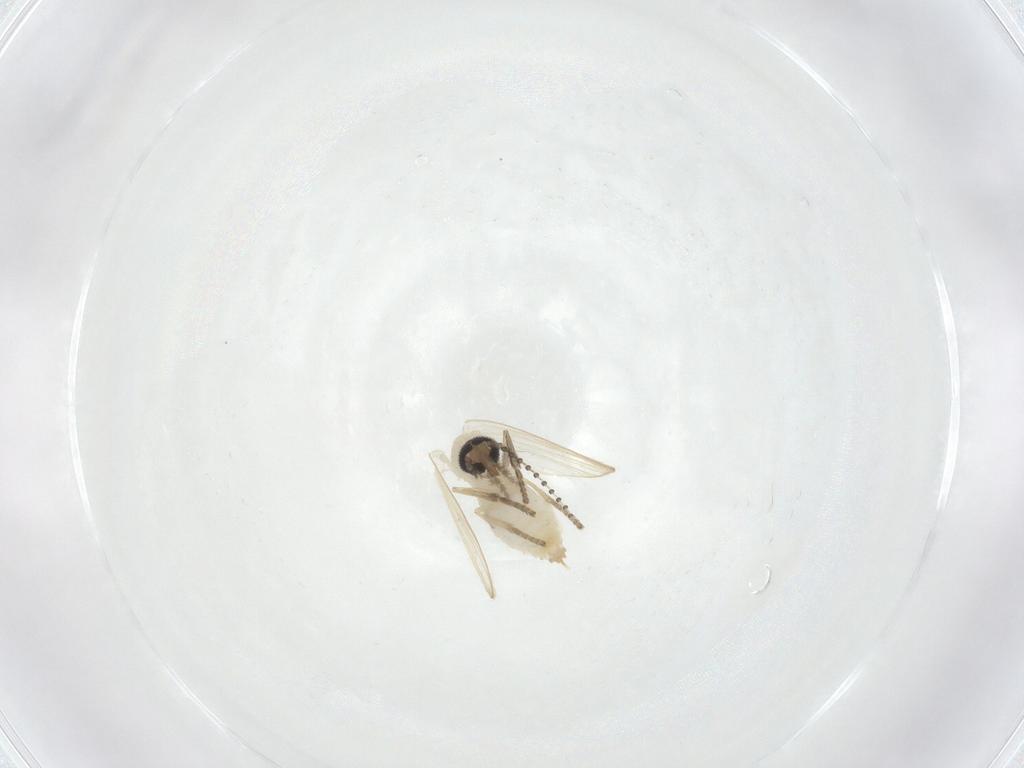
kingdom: Animalia
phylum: Arthropoda
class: Insecta
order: Diptera
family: Psychodidae
